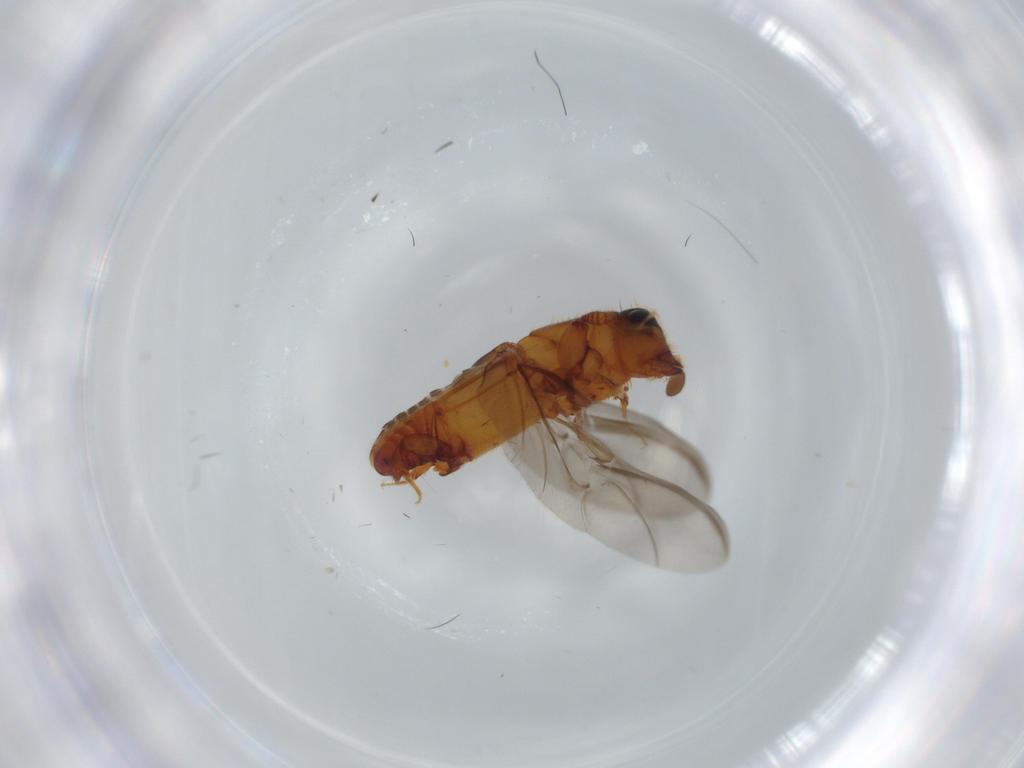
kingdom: Animalia
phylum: Arthropoda
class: Insecta
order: Coleoptera
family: Curculionidae
